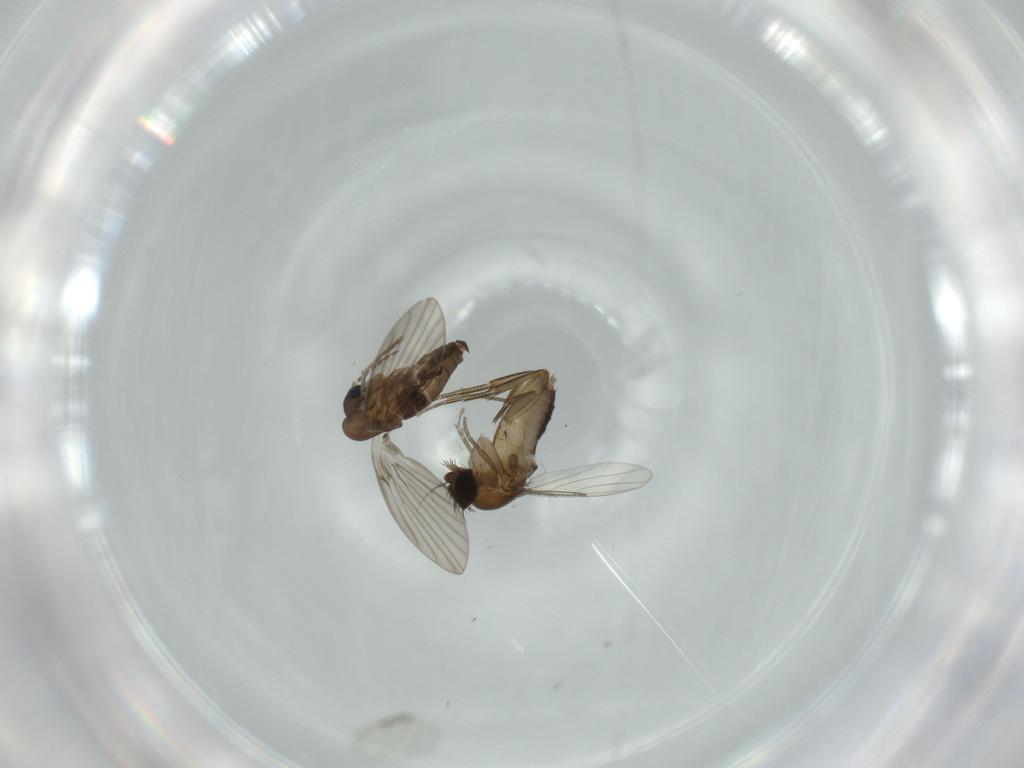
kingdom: Animalia
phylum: Arthropoda
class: Insecta
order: Diptera
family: Phoridae
